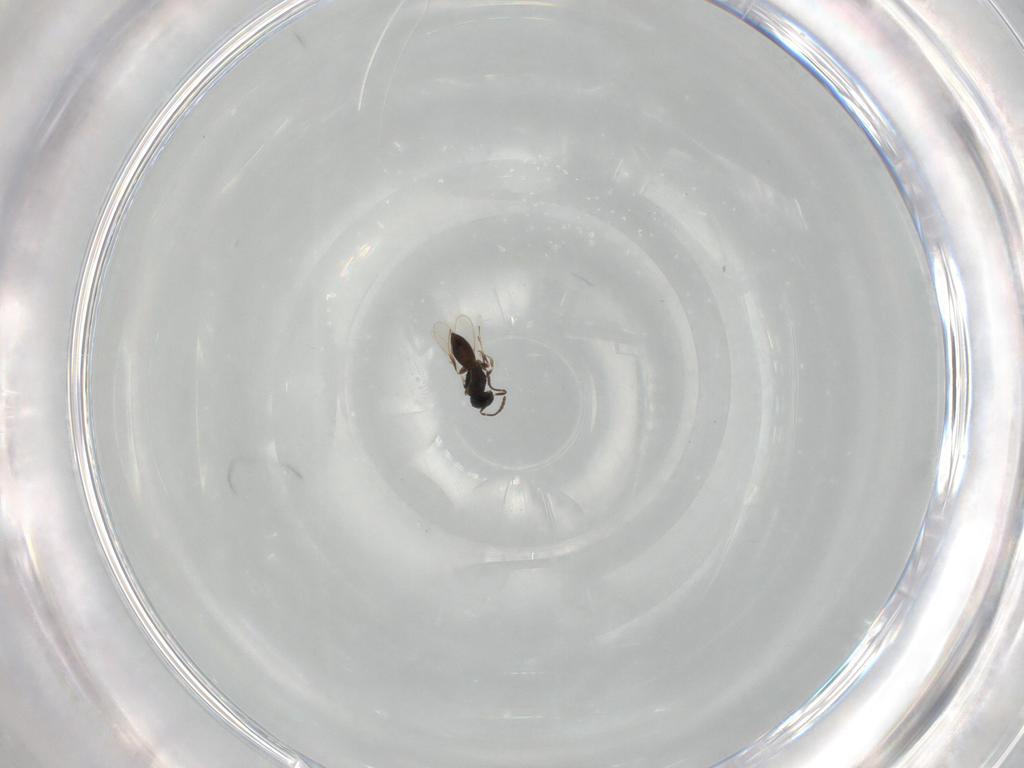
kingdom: Animalia
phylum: Arthropoda
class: Insecta
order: Hymenoptera
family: Scelionidae
